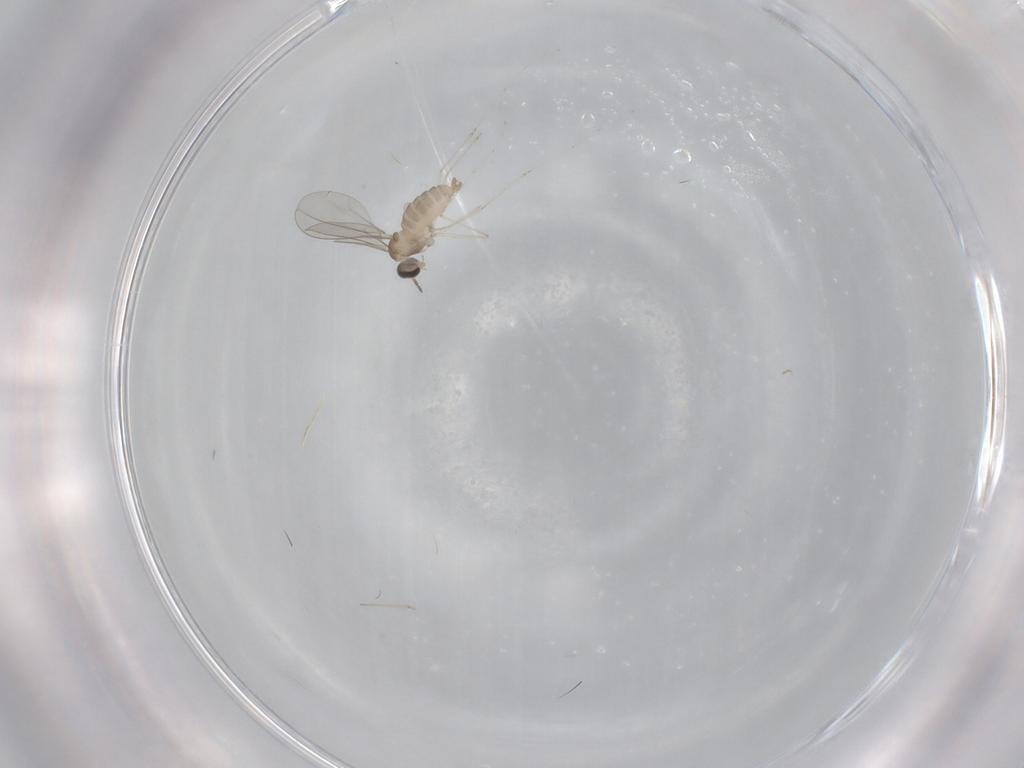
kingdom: Animalia
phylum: Arthropoda
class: Insecta
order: Diptera
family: Cecidomyiidae
